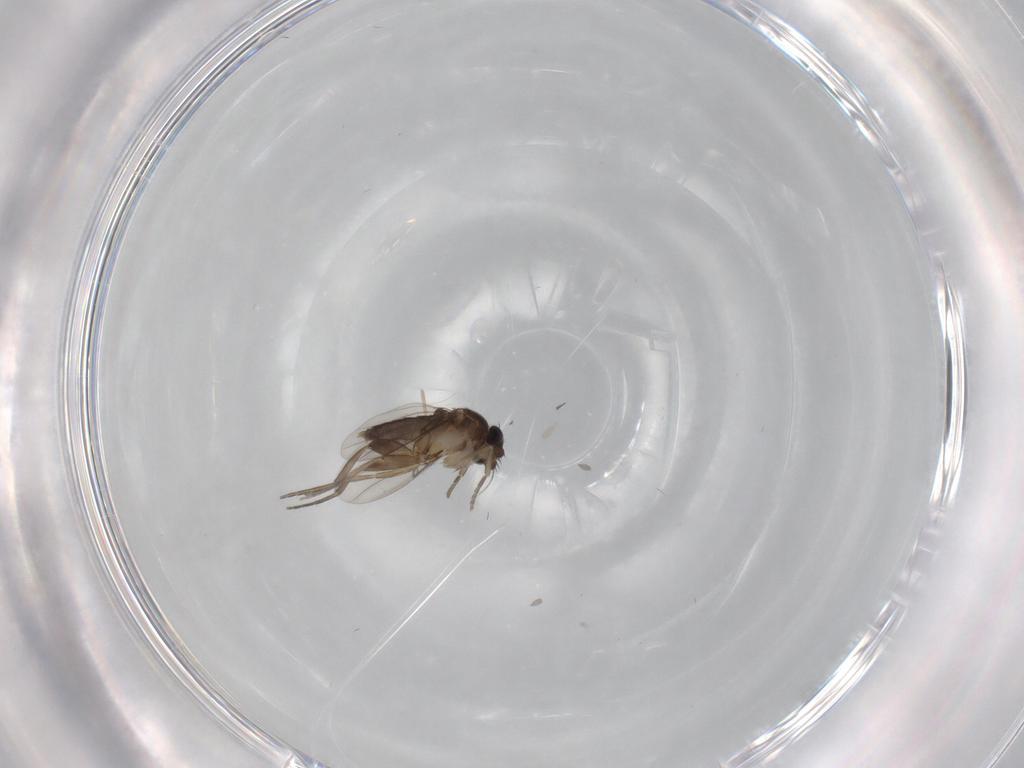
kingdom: Animalia
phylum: Arthropoda
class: Insecta
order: Diptera
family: Phoridae
